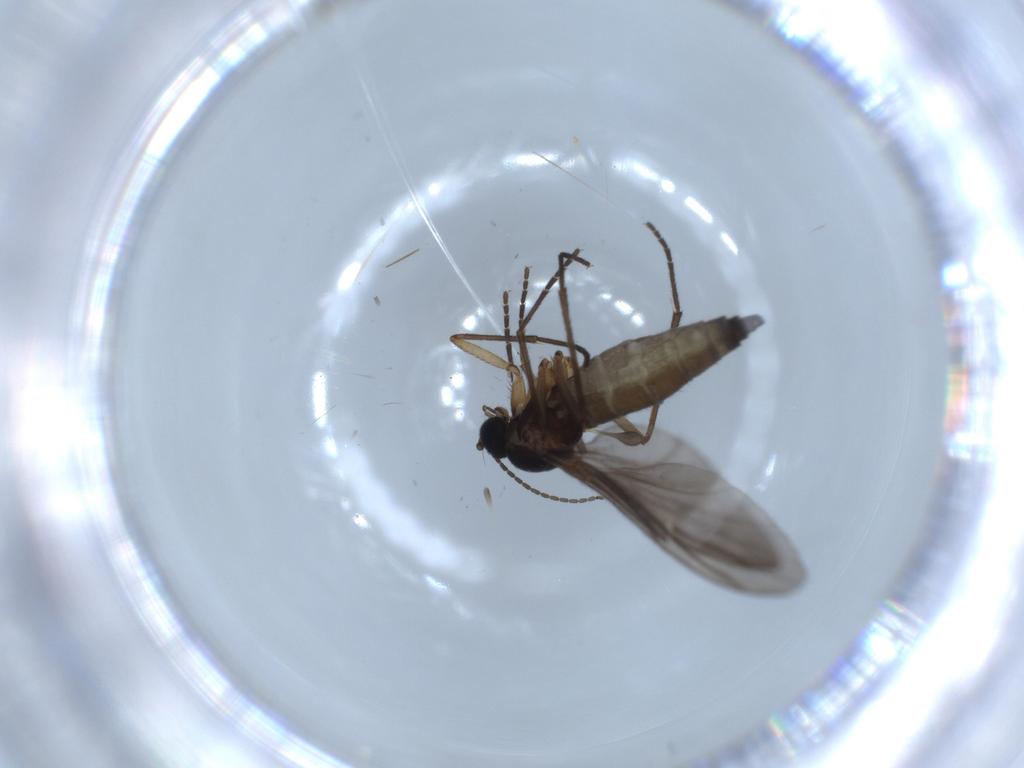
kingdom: Animalia
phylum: Arthropoda
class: Insecta
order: Diptera
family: Sciaridae
